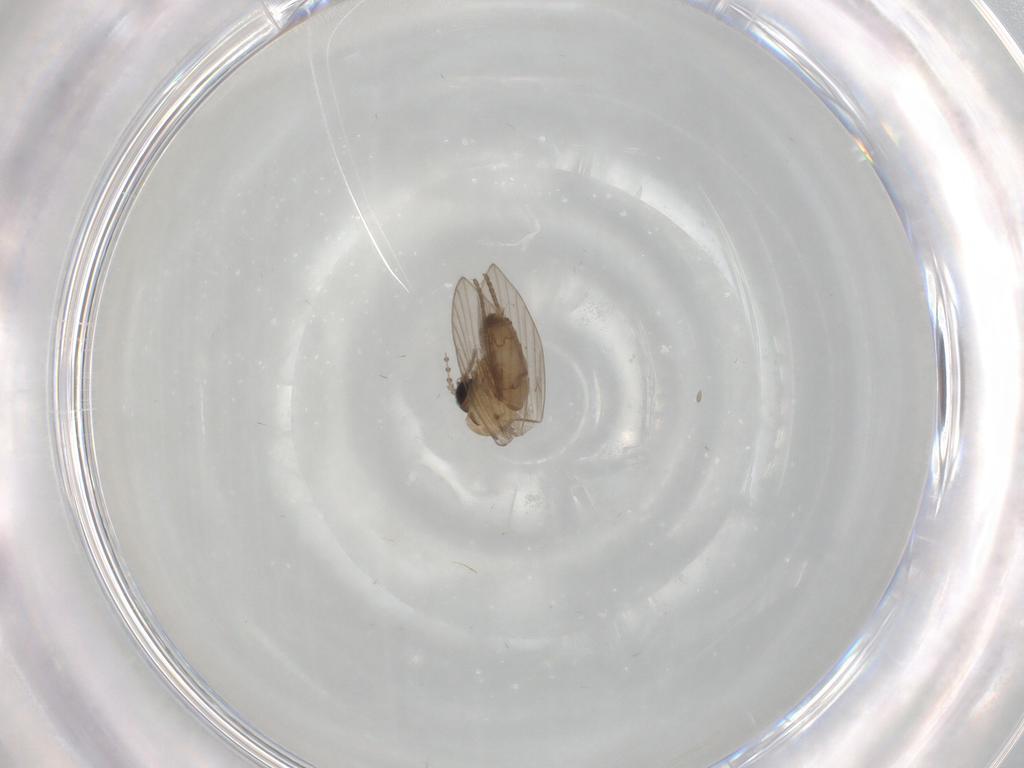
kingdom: Animalia
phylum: Arthropoda
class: Insecta
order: Diptera
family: Psychodidae
